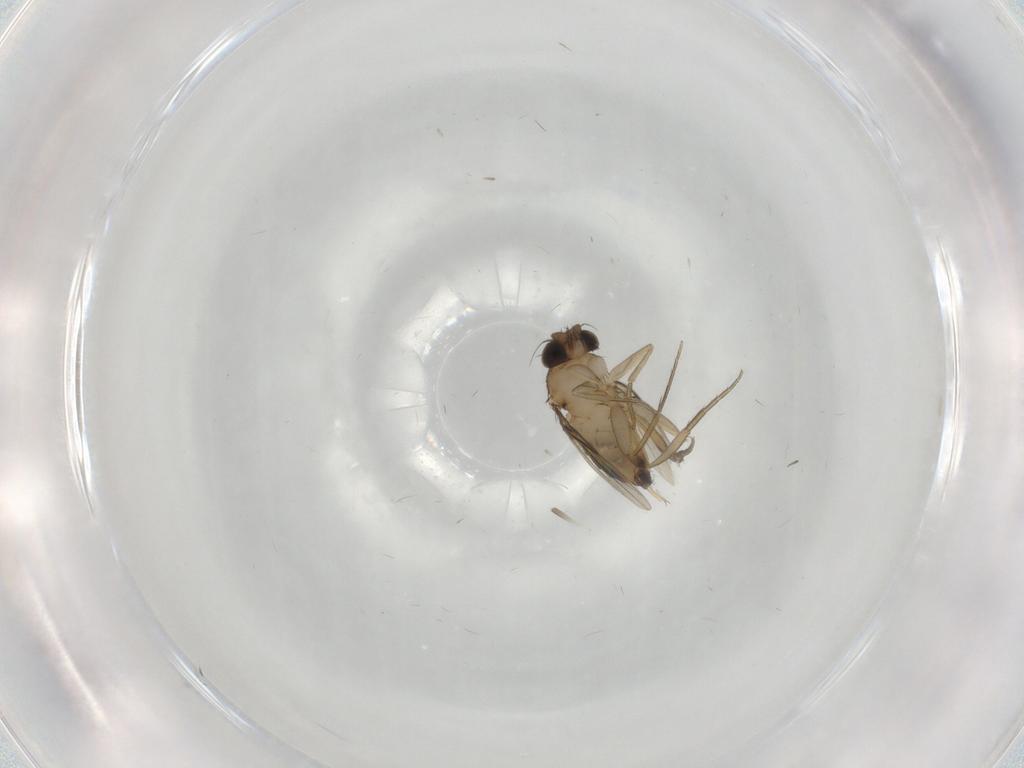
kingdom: Animalia
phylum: Arthropoda
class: Insecta
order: Diptera
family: Phoridae
